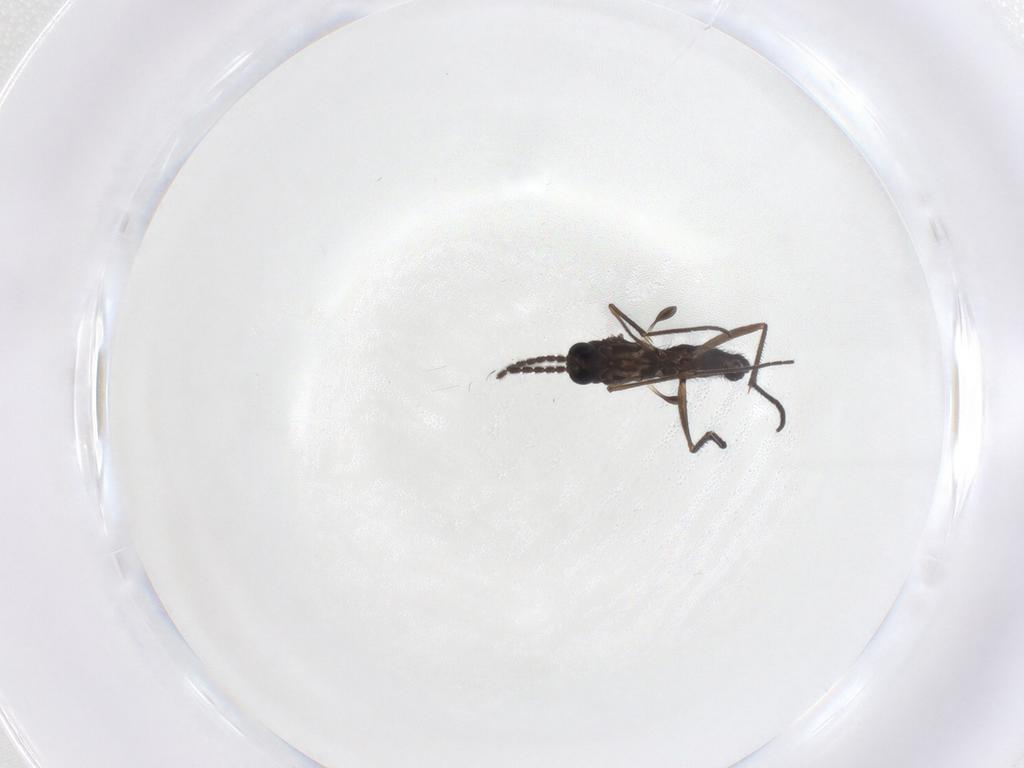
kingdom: Animalia
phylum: Arthropoda
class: Insecta
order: Diptera
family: Sciaridae
